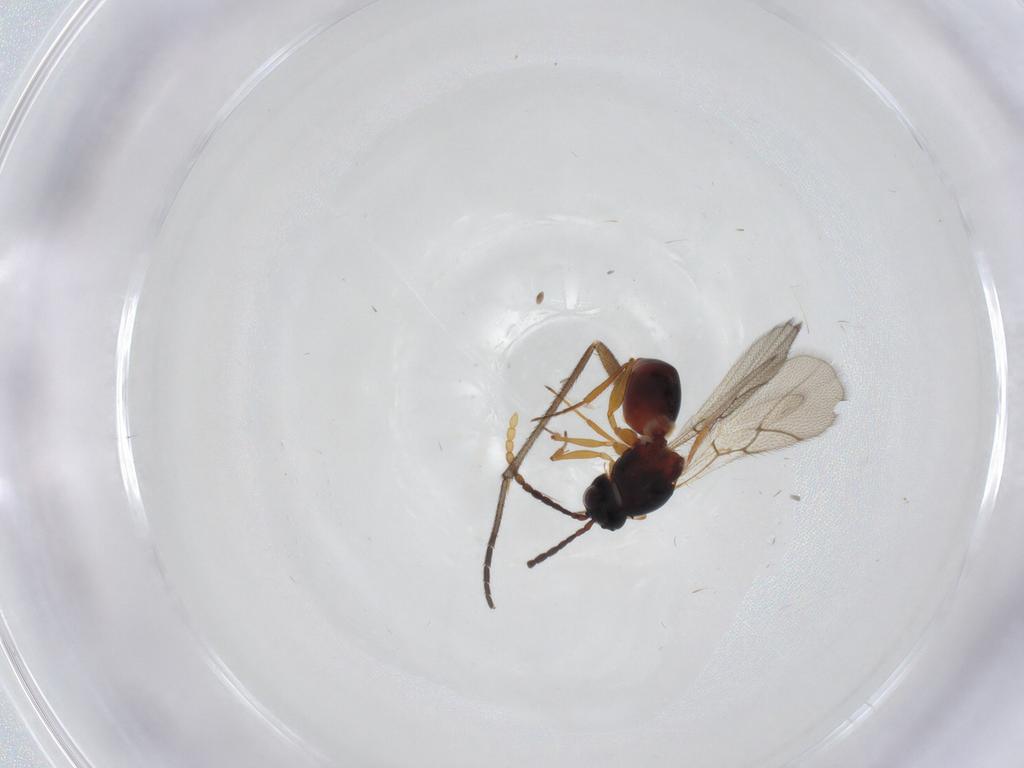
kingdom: Animalia
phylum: Arthropoda
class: Insecta
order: Hymenoptera
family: Figitidae
